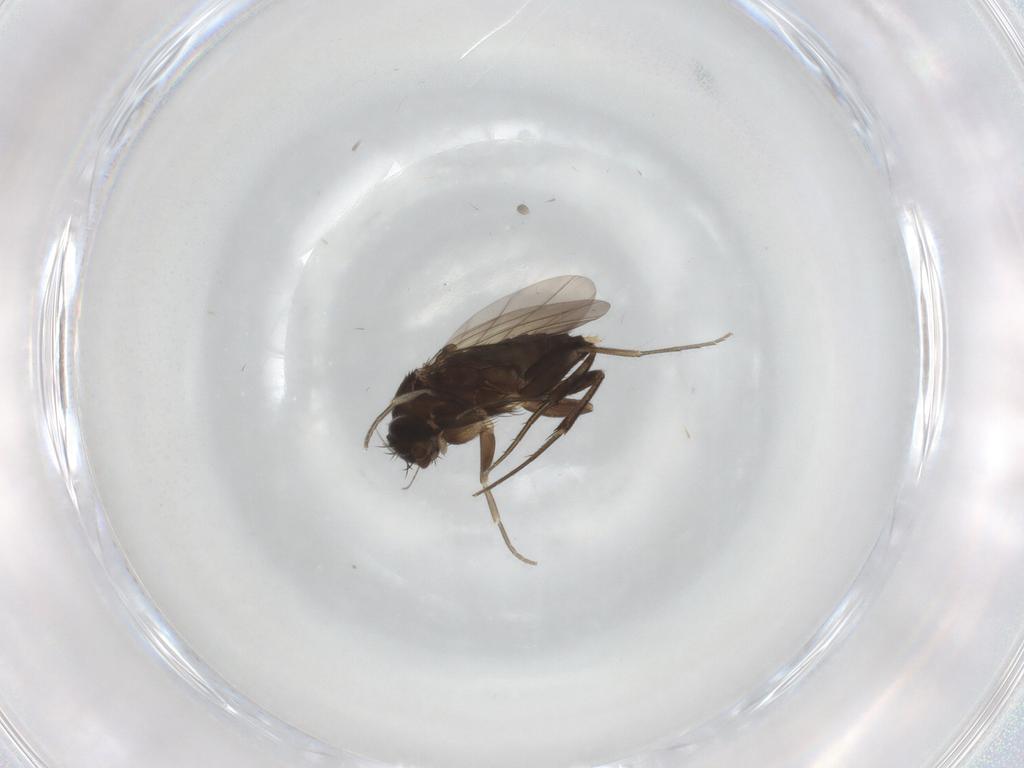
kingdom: Animalia
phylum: Arthropoda
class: Insecta
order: Diptera
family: Phoridae
